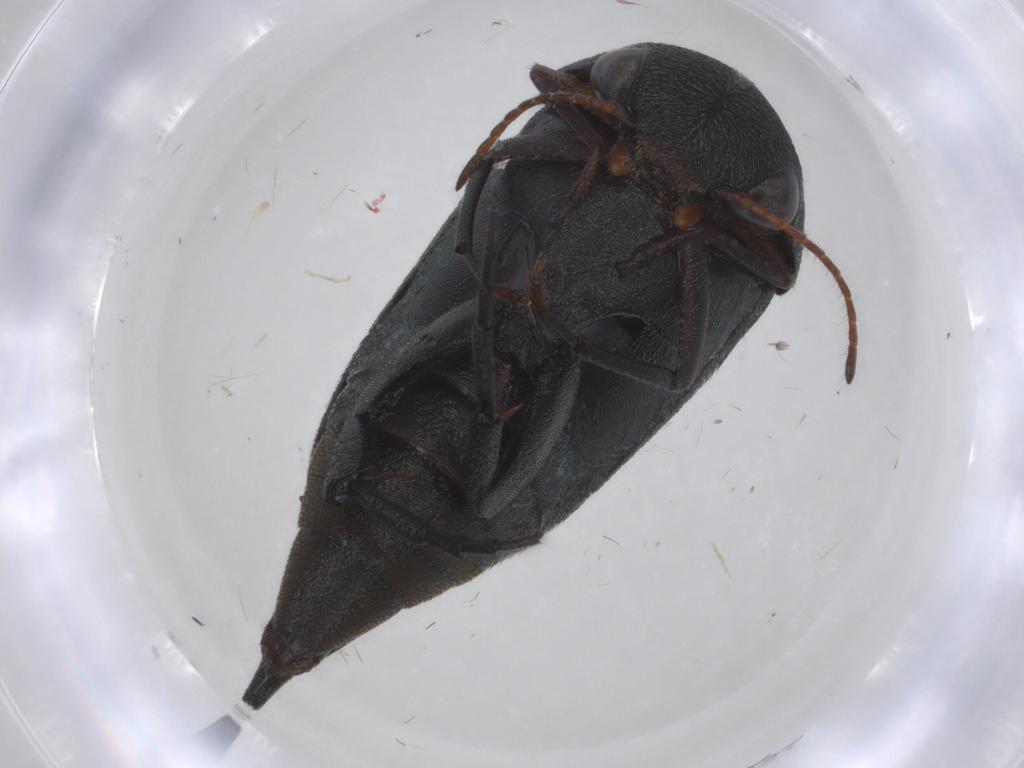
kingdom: Animalia
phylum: Arthropoda
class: Insecta
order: Coleoptera
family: Mordellidae
